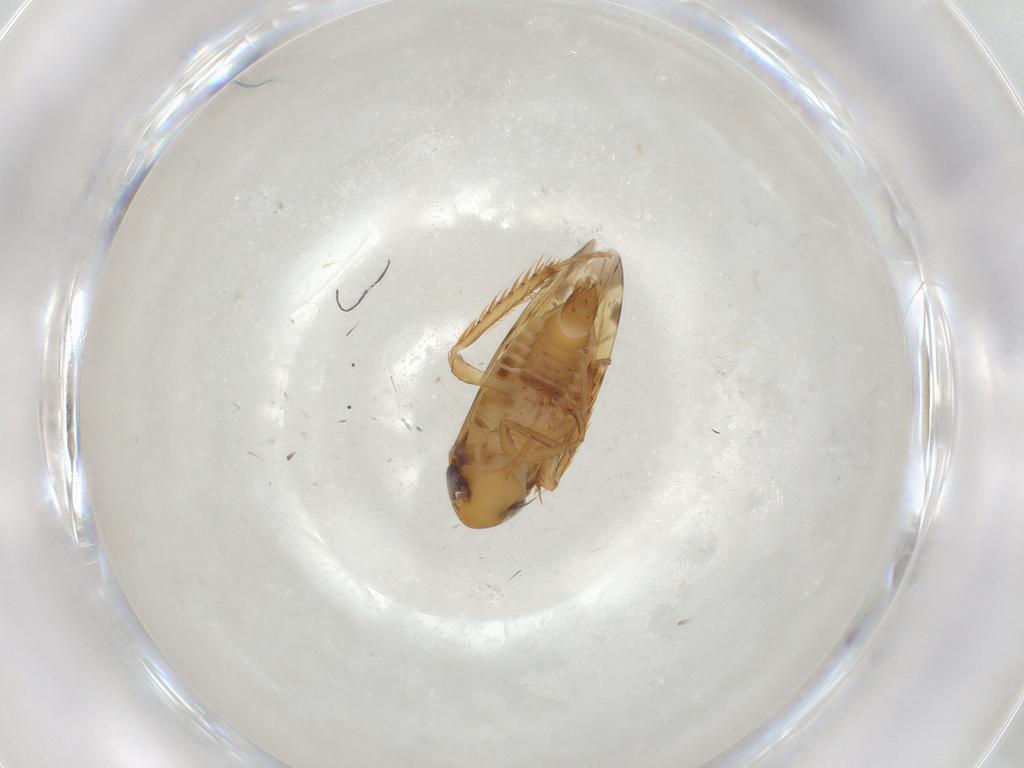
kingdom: Animalia
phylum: Arthropoda
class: Insecta
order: Hemiptera
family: Cicadellidae
